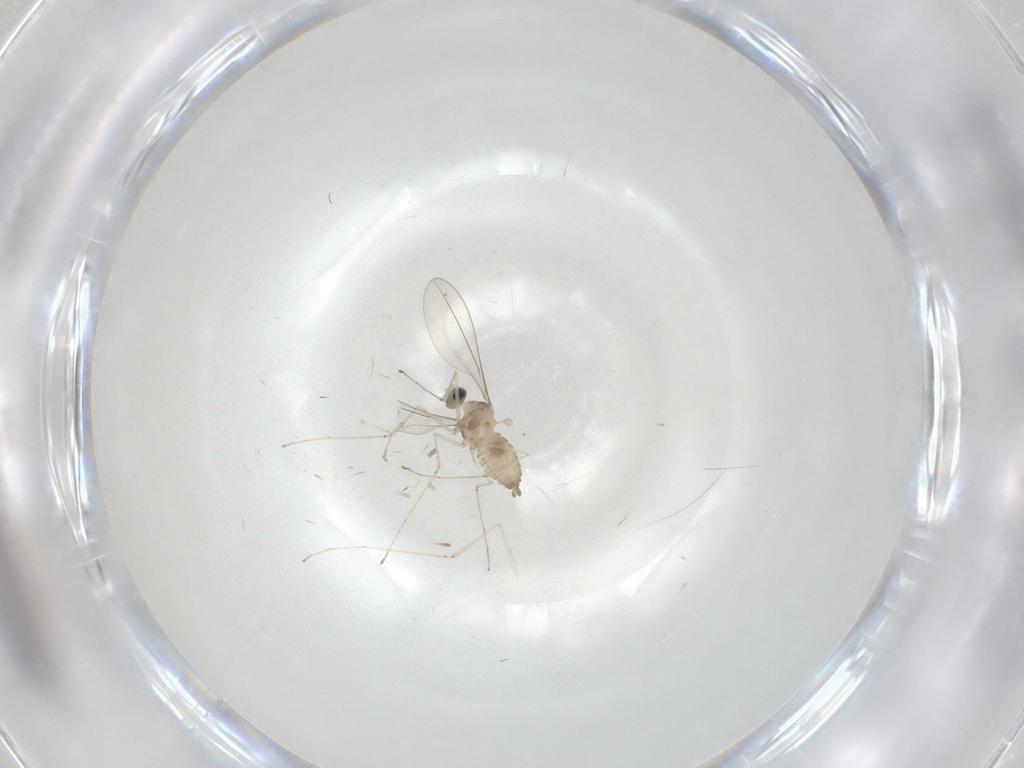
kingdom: Animalia
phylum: Arthropoda
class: Insecta
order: Diptera
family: Cecidomyiidae
